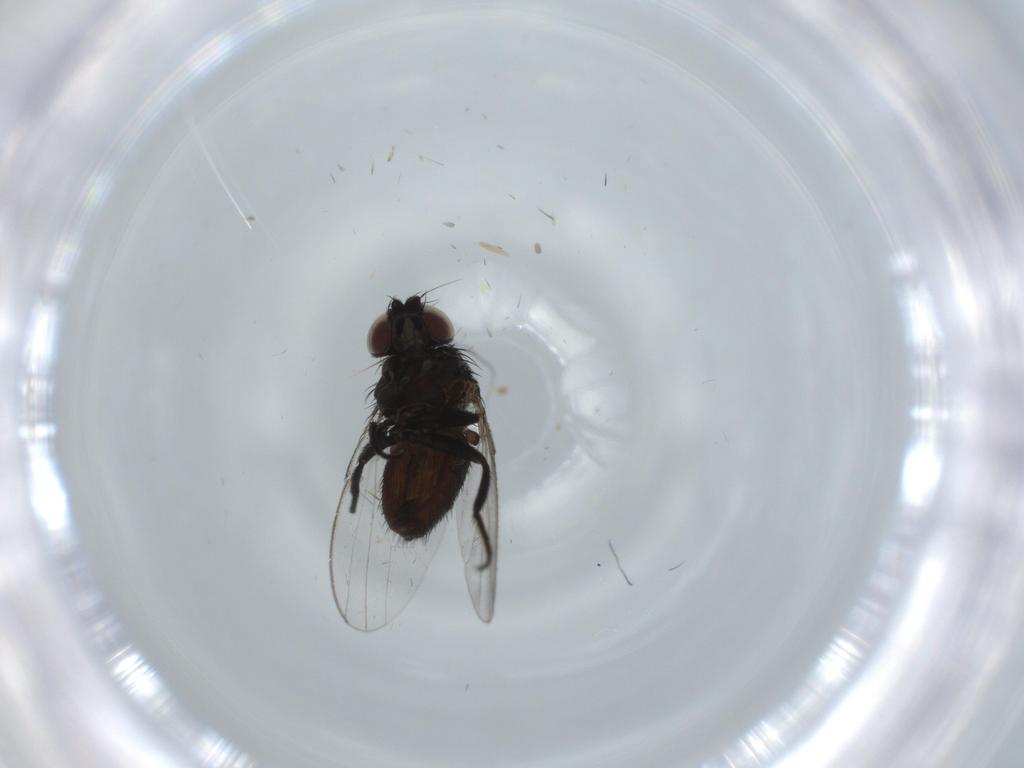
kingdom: Animalia
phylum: Arthropoda
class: Insecta
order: Diptera
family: Milichiidae
